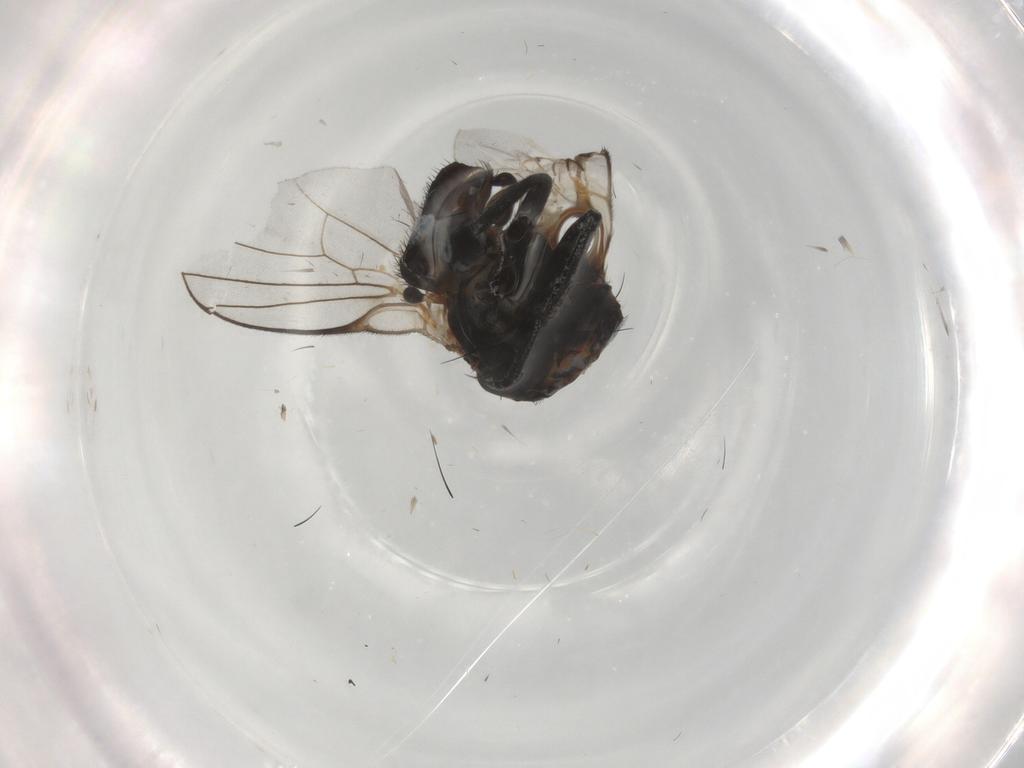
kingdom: Animalia
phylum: Arthropoda
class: Insecta
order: Diptera
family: Agromyzidae
